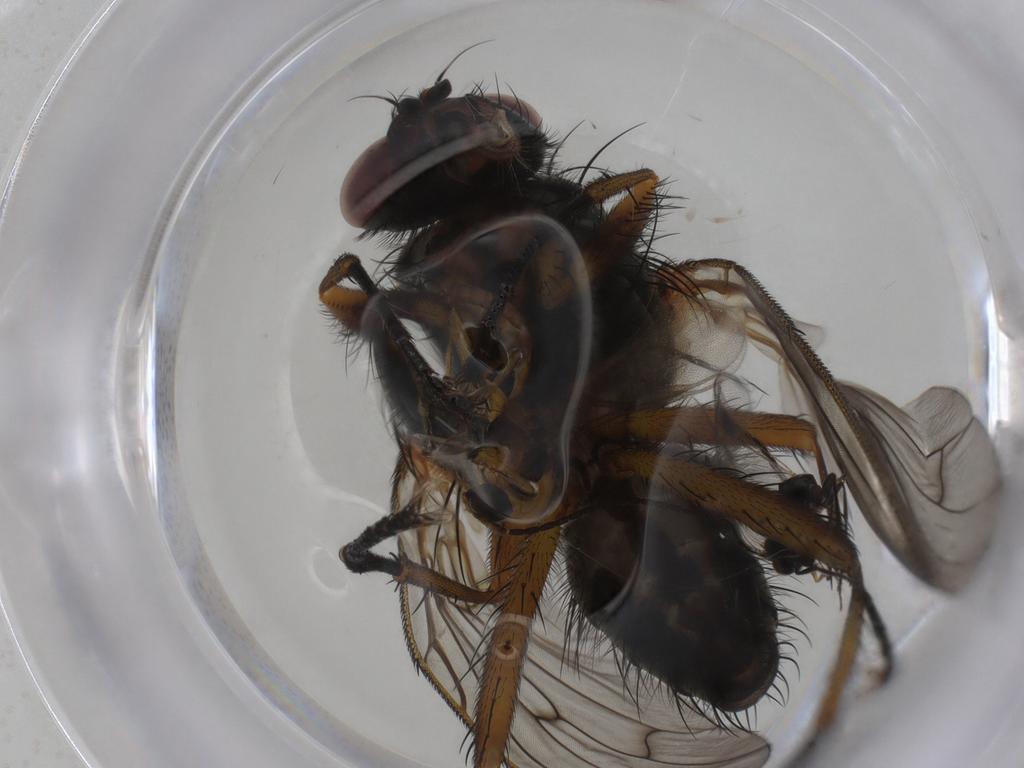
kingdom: Animalia
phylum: Arthropoda
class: Insecta
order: Diptera
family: Anthomyiidae
